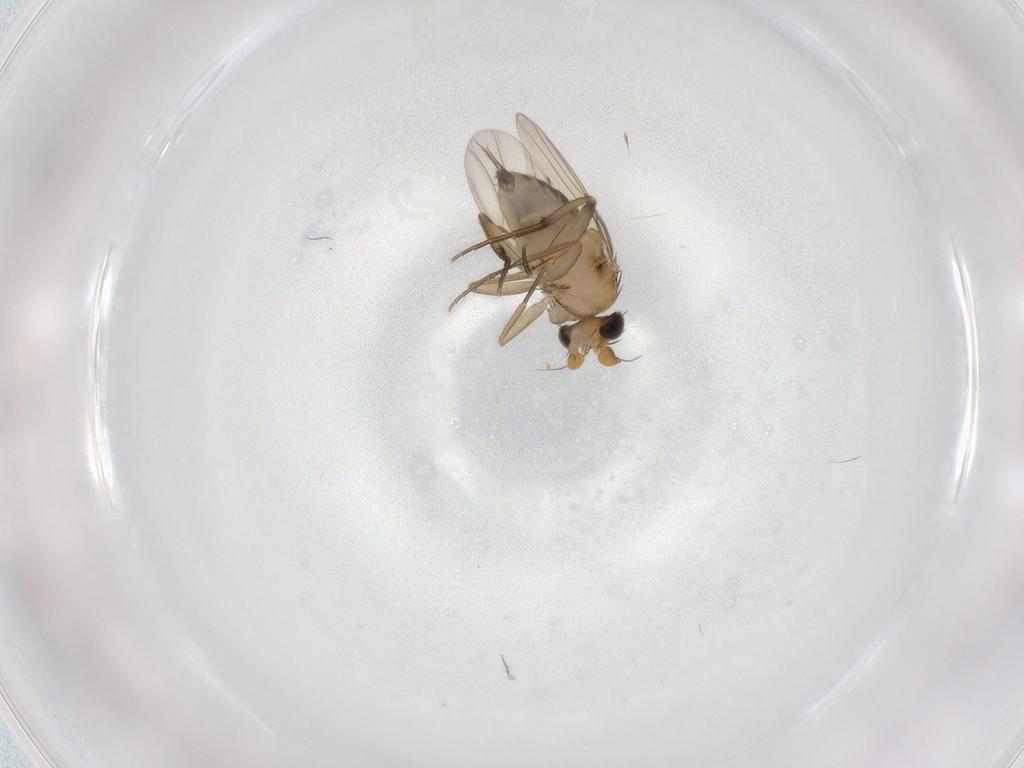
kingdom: Animalia
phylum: Arthropoda
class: Insecta
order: Diptera
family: Phoridae
